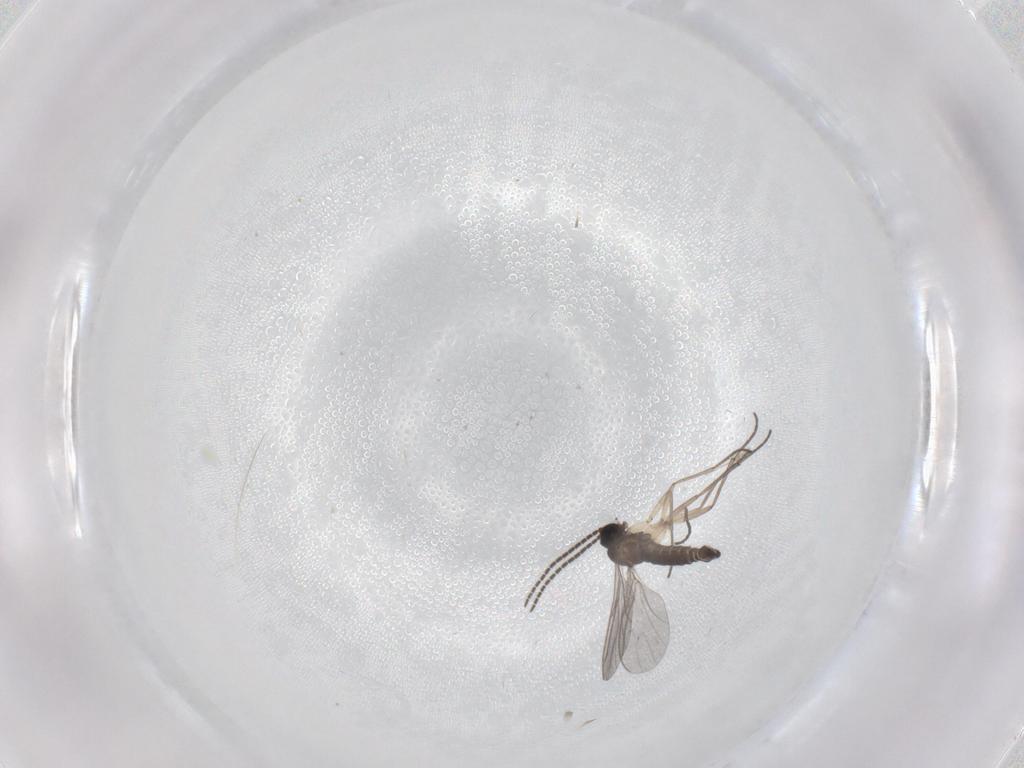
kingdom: Animalia
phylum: Arthropoda
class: Insecta
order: Diptera
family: Sciaridae
